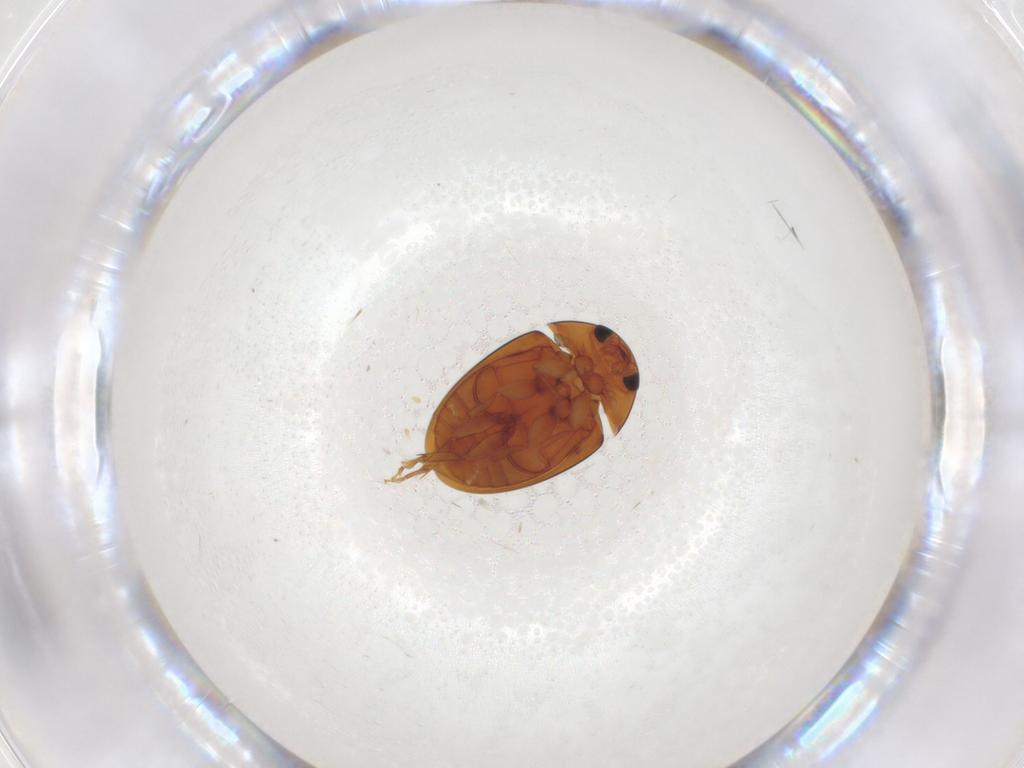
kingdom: Animalia
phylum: Arthropoda
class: Insecta
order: Coleoptera
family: Phalacridae
